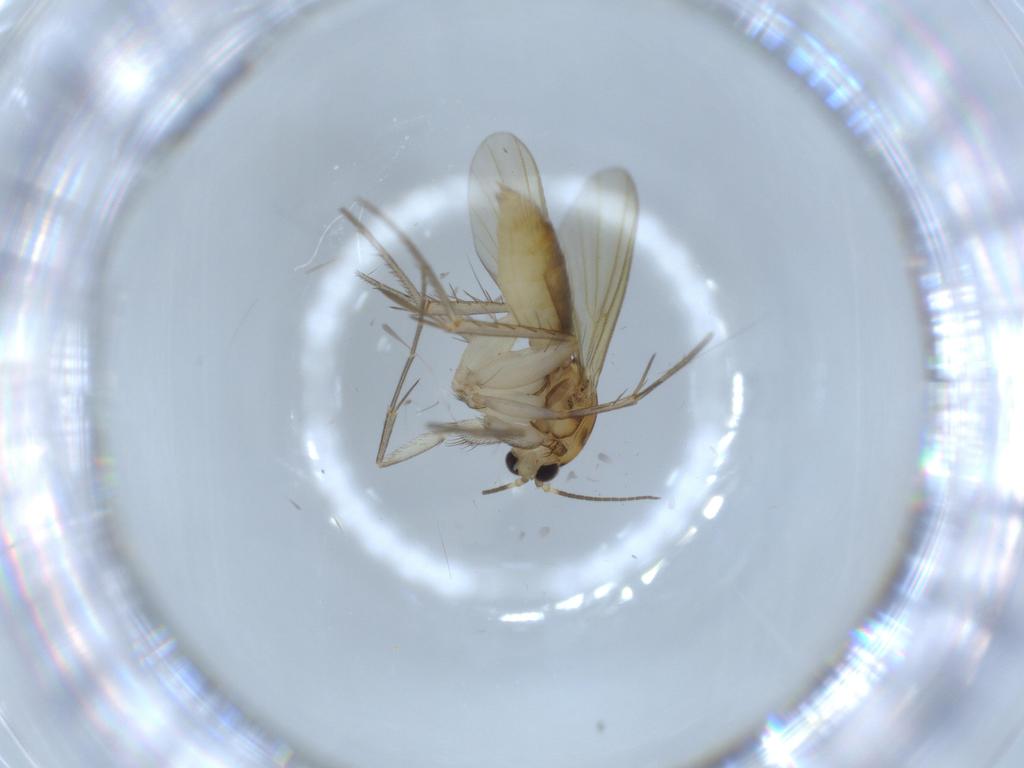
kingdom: Animalia
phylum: Arthropoda
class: Insecta
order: Diptera
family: Mycetophilidae
